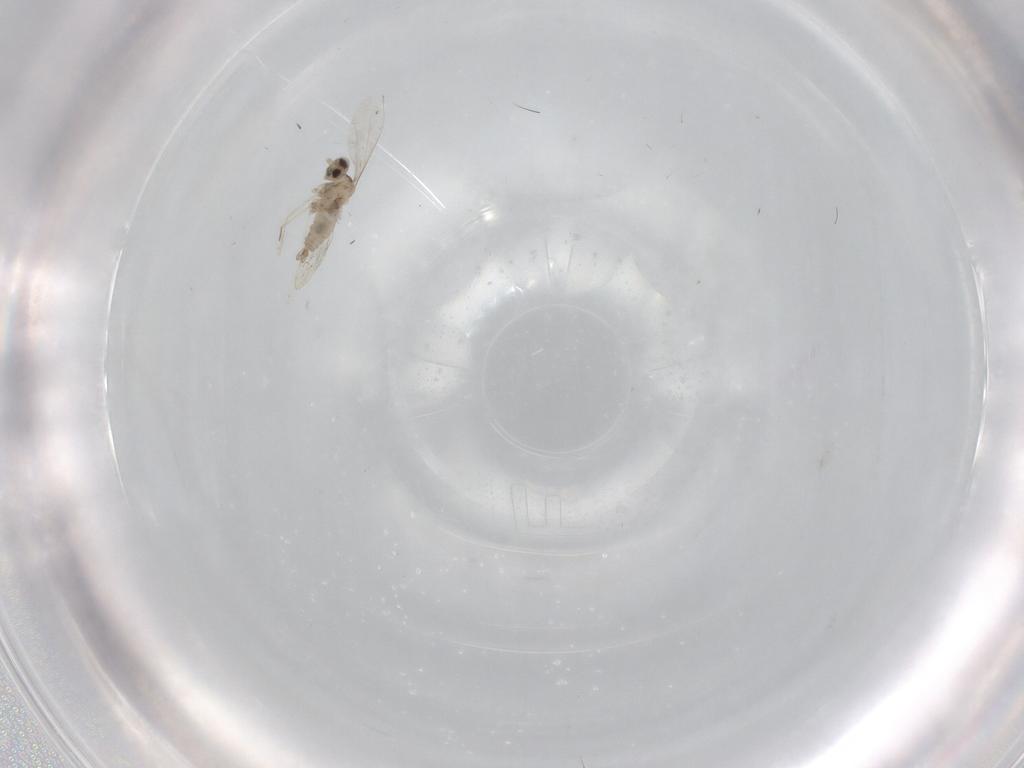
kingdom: Animalia
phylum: Arthropoda
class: Insecta
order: Diptera
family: Cecidomyiidae
